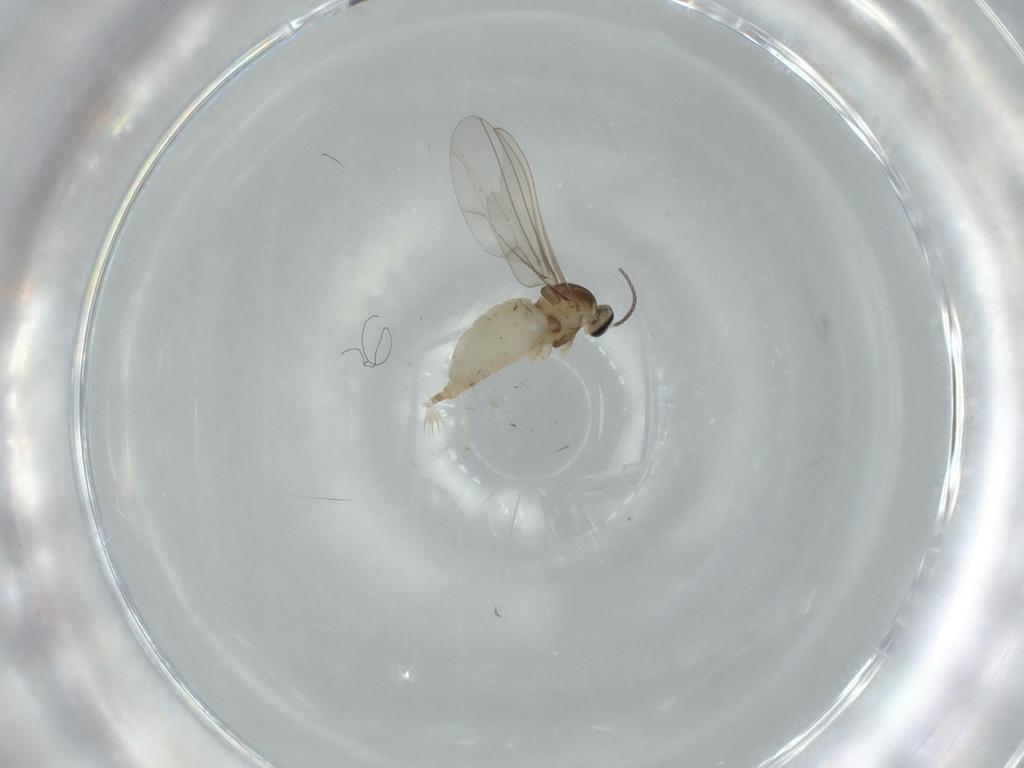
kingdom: Animalia
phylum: Arthropoda
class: Insecta
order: Diptera
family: Cecidomyiidae
